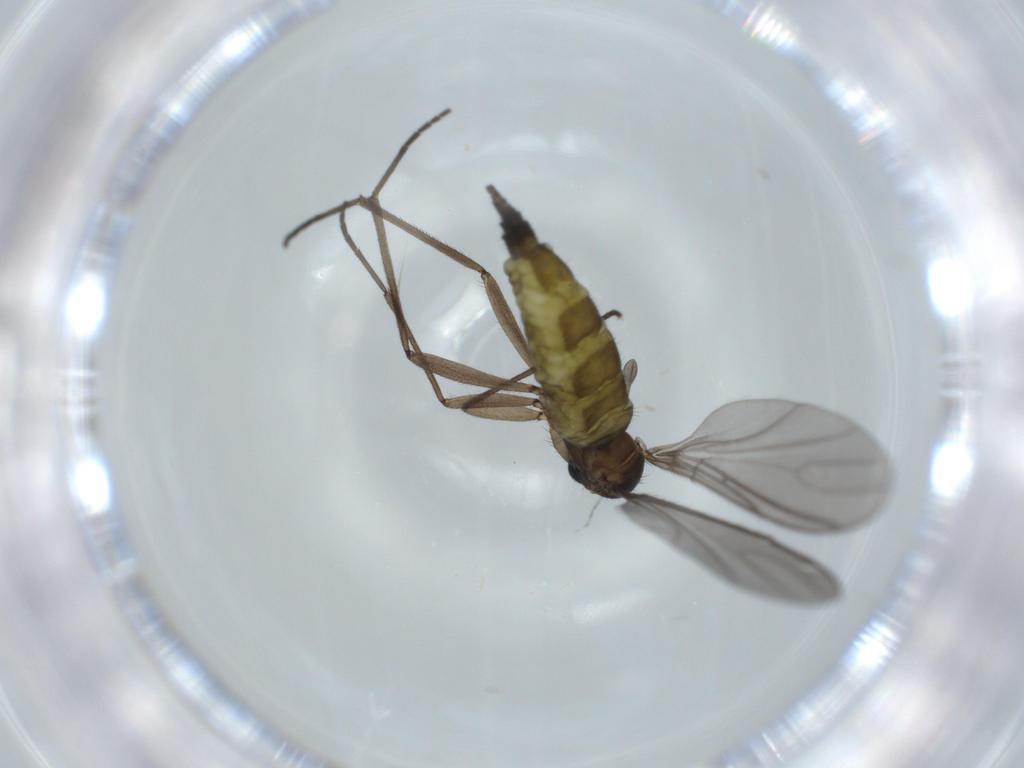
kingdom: Animalia
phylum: Arthropoda
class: Insecta
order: Diptera
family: Sciaridae
